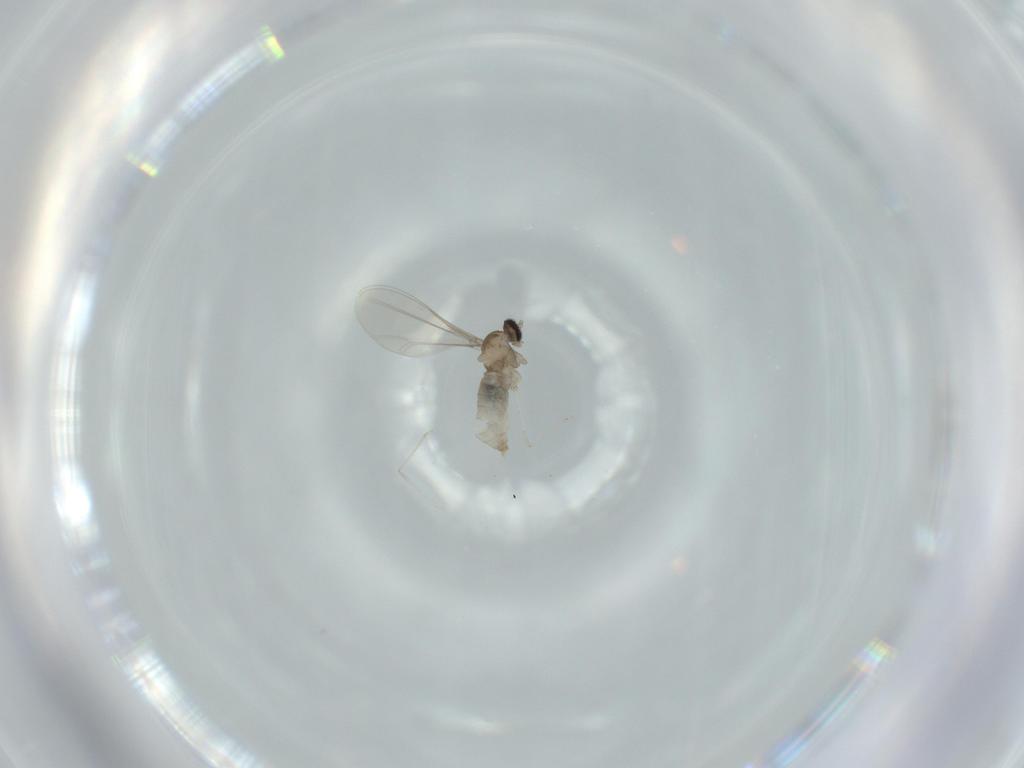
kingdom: Animalia
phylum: Arthropoda
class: Insecta
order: Diptera
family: Cecidomyiidae
